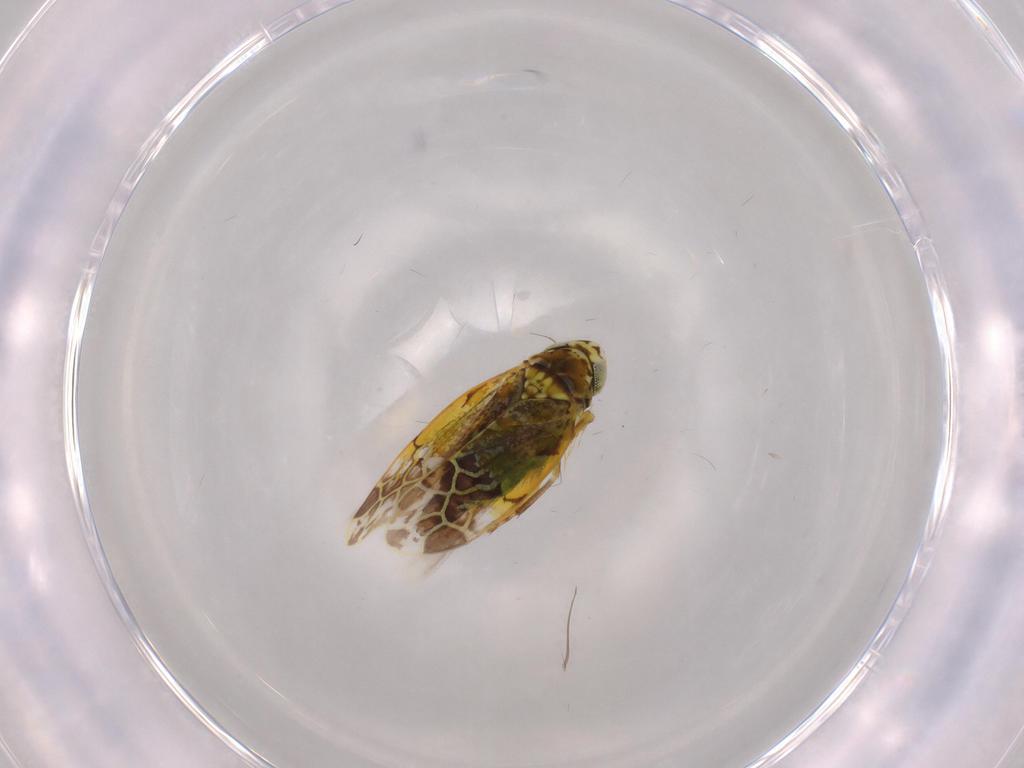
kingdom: Animalia
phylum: Arthropoda
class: Insecta
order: Hemiptera
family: Cicadellidae
